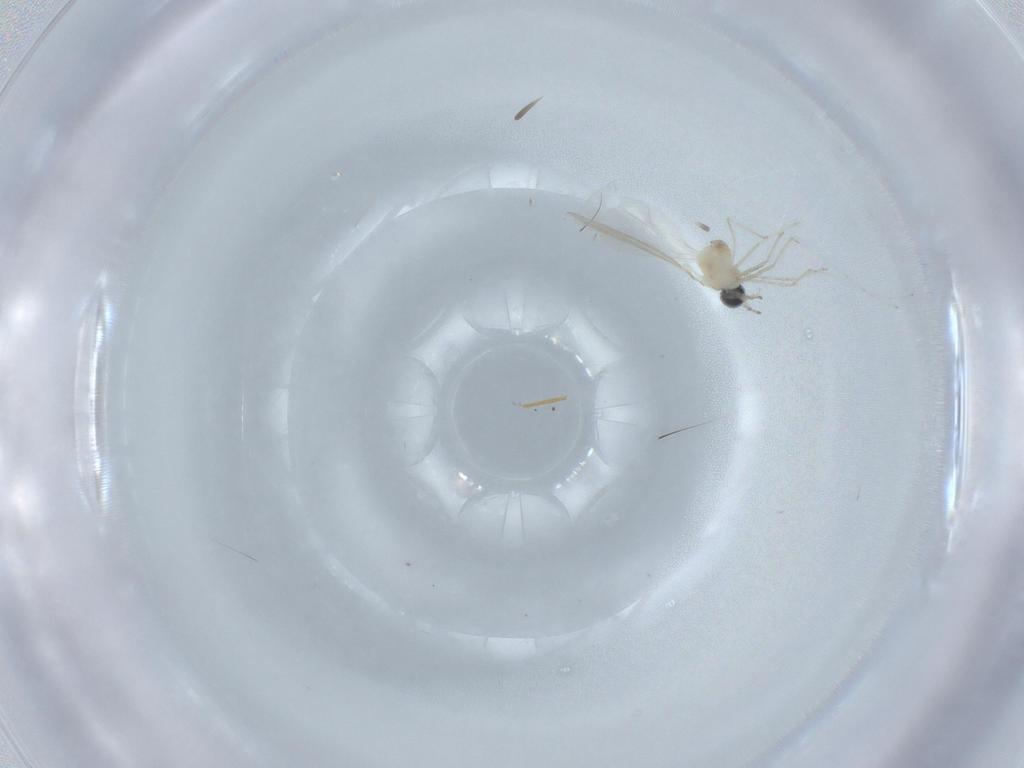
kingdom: Animalia
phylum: Arthropoda
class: Insecta
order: Diptera
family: Cecidomyiidae
